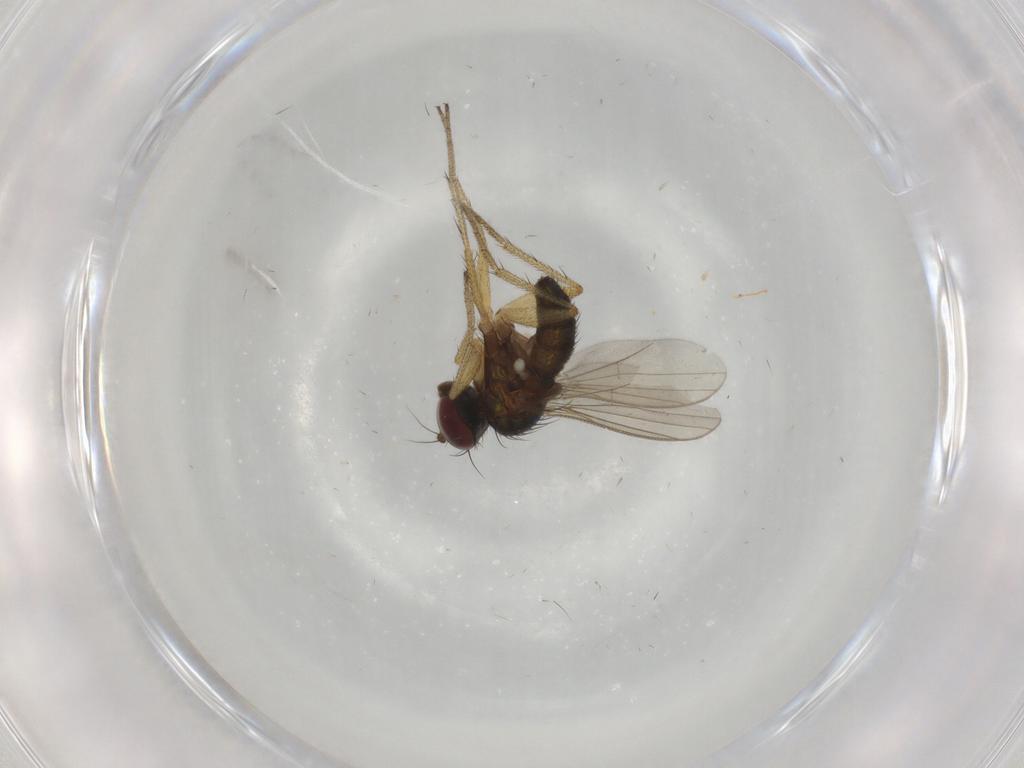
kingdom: Animalia
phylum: Arthropoda
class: Insecta
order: Diptera
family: Dolichopodidae
